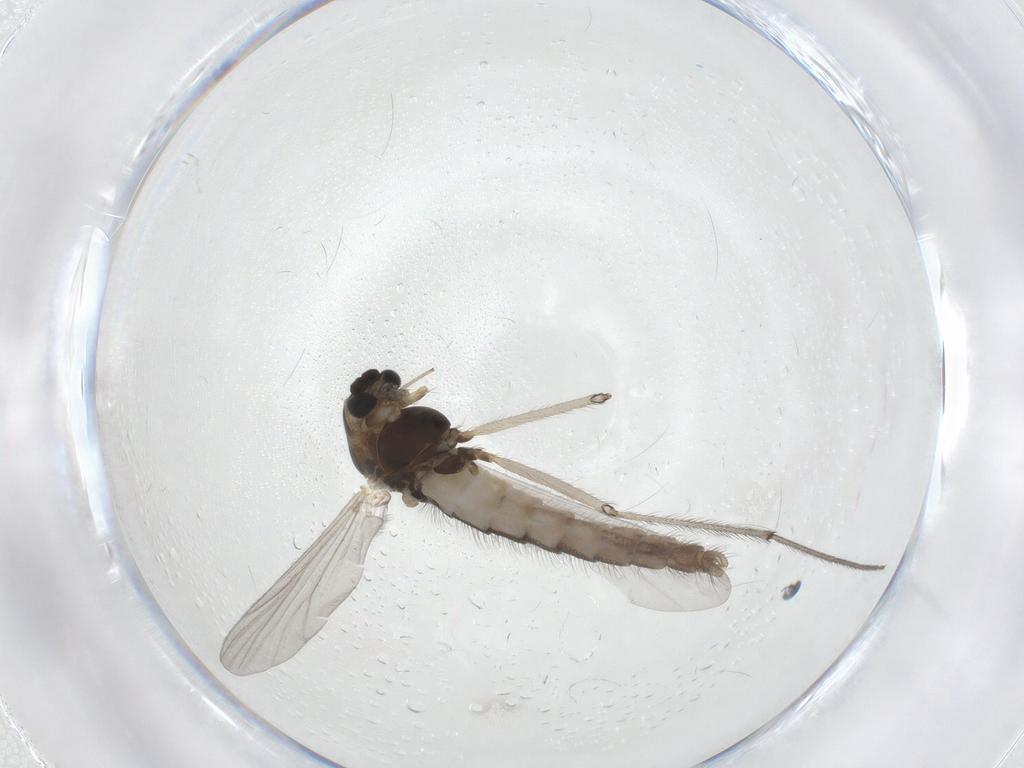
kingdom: Animalia
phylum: Arthropoda
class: Insecta
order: Diptera
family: Chironomidae
